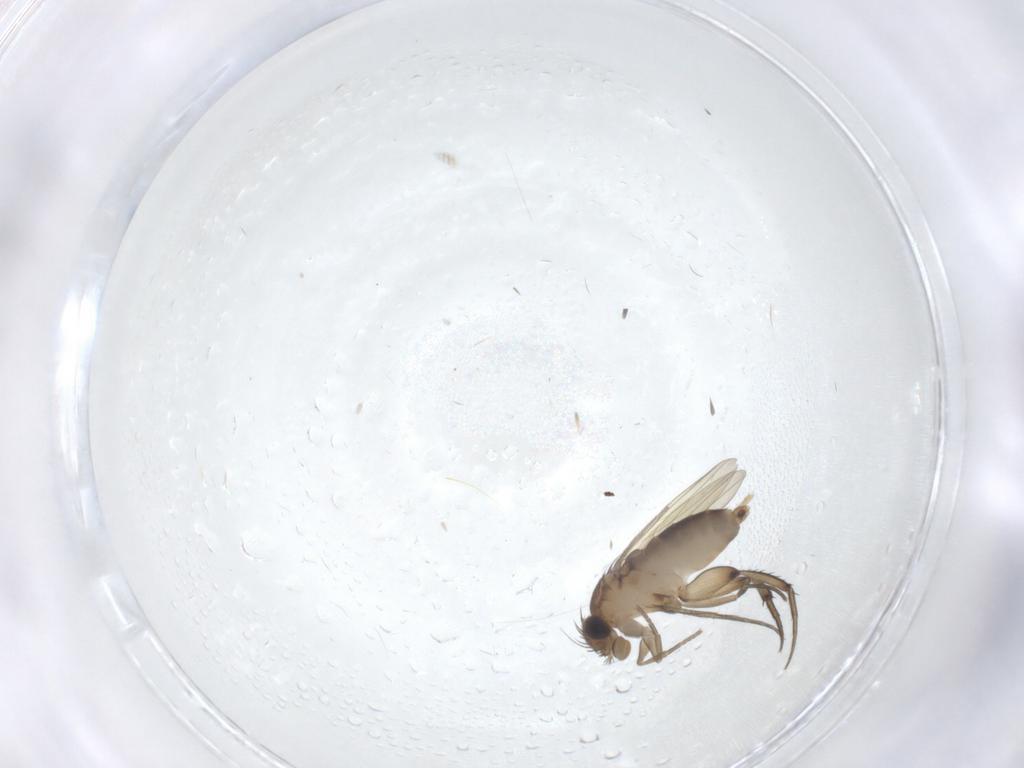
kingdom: Animalia
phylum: Arthropoda
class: Insecta
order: Diptera
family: Phoridae
